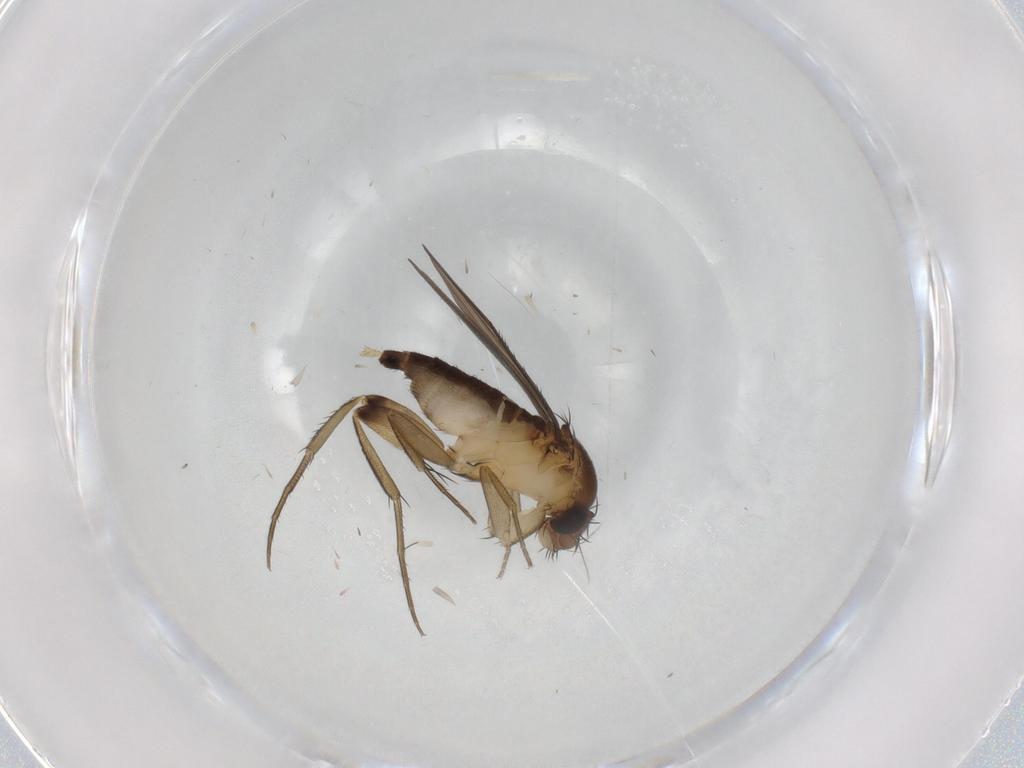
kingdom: Animalia
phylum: Arthropoda
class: Insecta
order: Diptera
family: Phoridae
